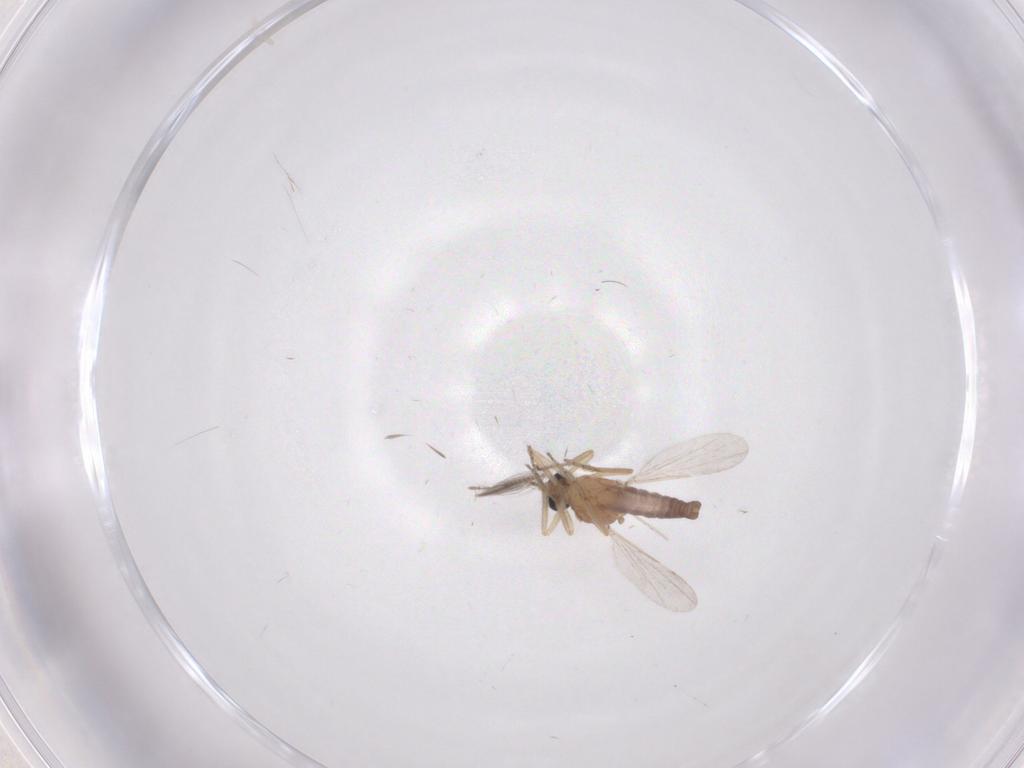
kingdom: Animalia
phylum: Arthropoda
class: Insecta
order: Diptera
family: Ceratopogonidae
